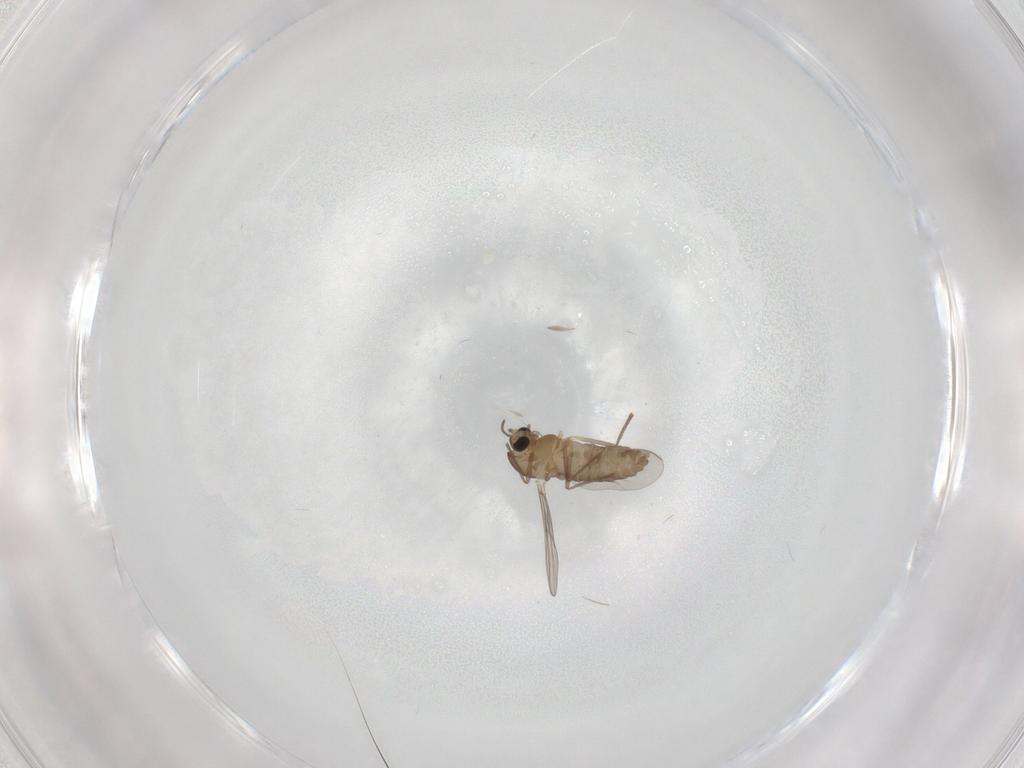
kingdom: Animalia
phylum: Arthropoda
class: Insecta
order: Diptera
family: Chironomidae
